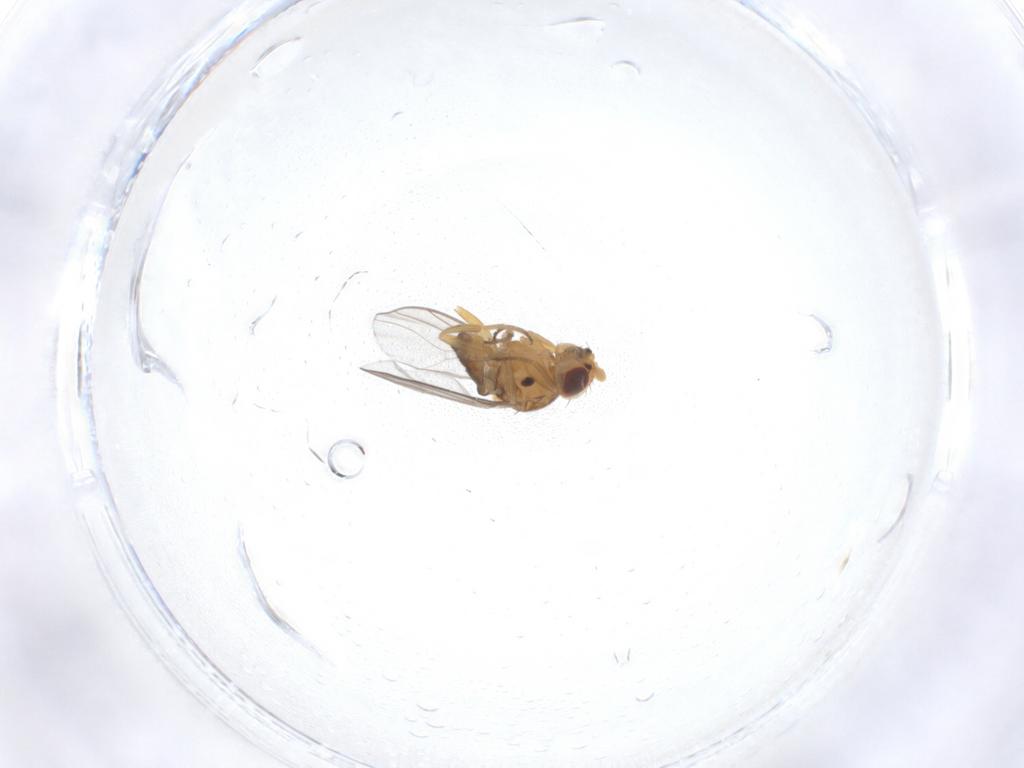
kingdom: Animalia
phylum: Arthropoda
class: Insecta
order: Diptera
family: Chloropidae
